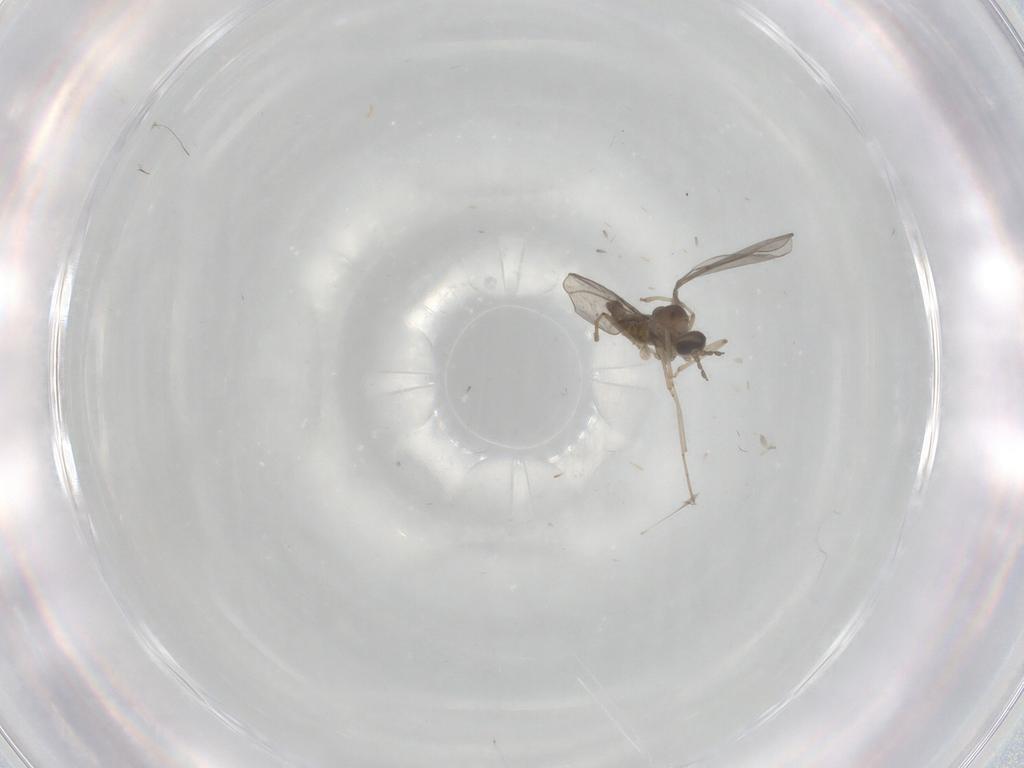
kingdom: Animalia
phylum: Arthropoda
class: Insecta
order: Diptera
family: Cecidomyiidae
